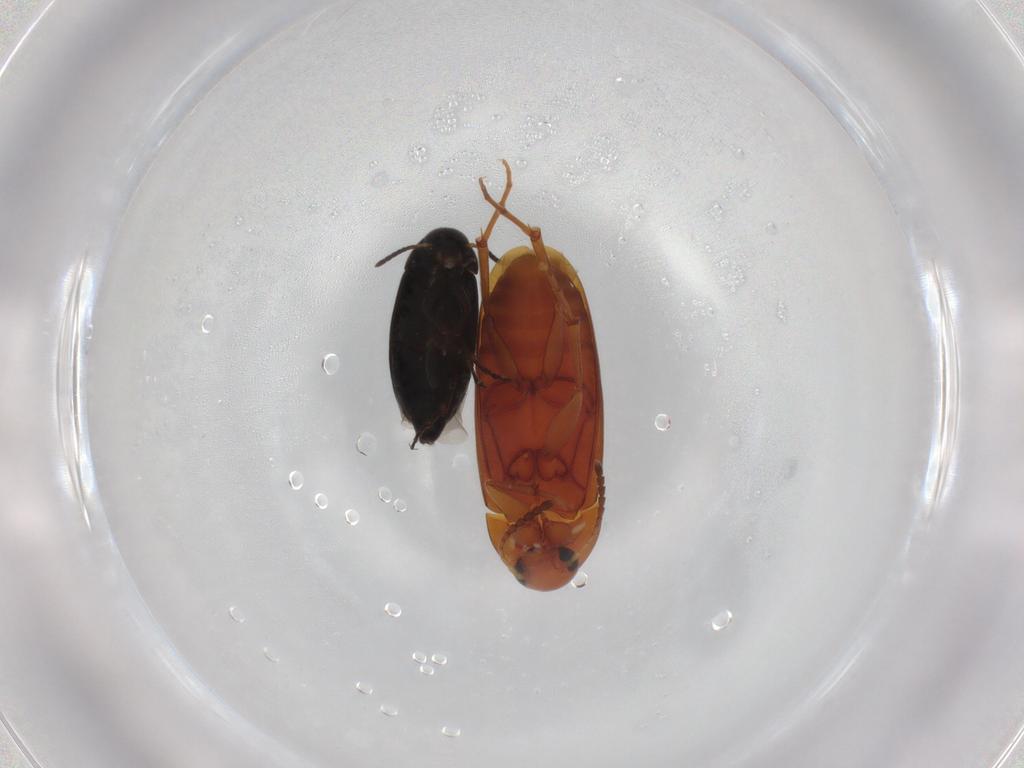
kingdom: Animalia
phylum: Arthropoda
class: Insecta
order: Coleoptera
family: Scraptiidae
